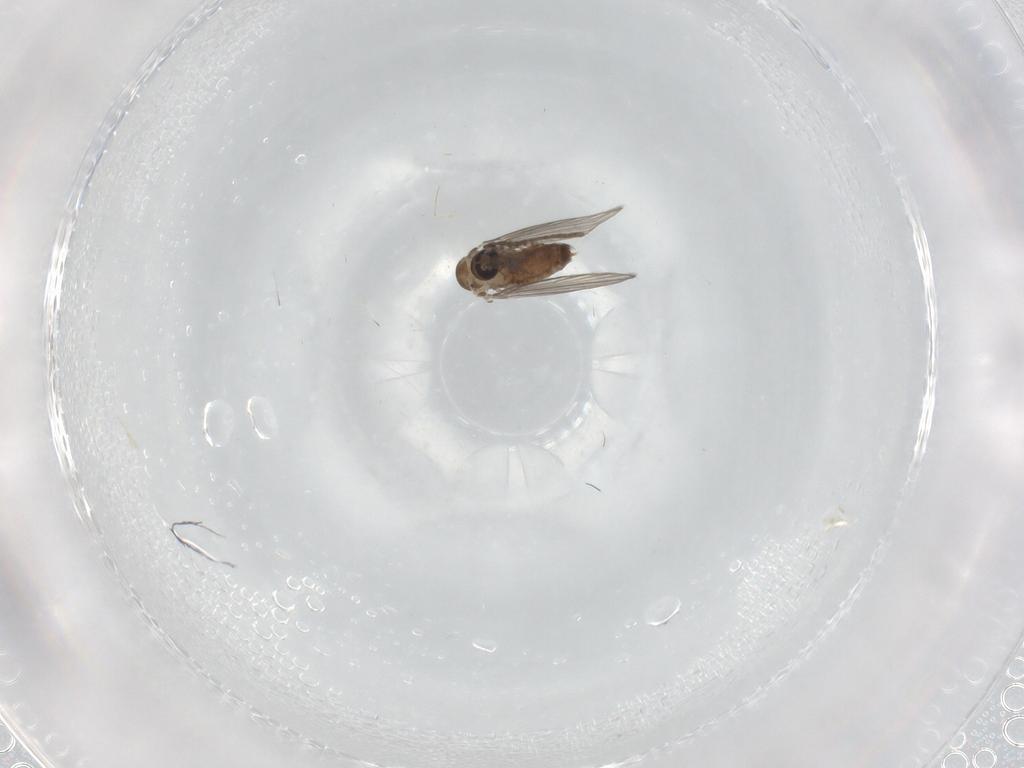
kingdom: Animalia
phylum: Arthropoda
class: Insecta
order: Diptera
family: Psychodidae
